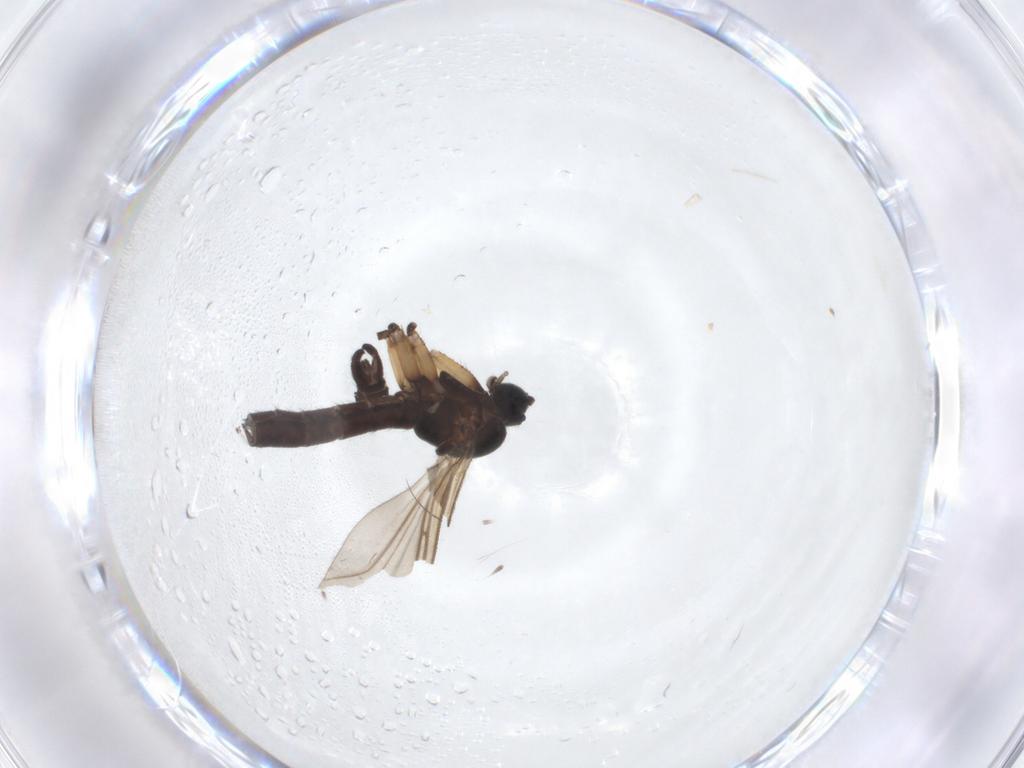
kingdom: Animalia
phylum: Arthropoda
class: Insecta
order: Diptera
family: Sciaridae
